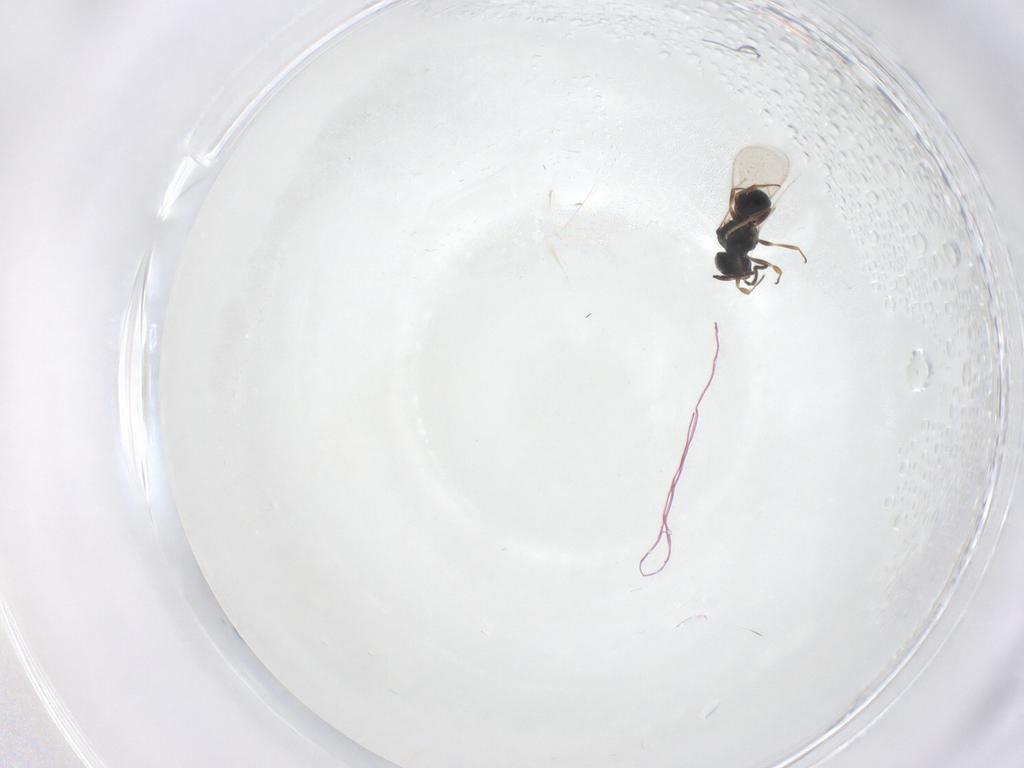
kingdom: Animalia
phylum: Arthropoda
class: Insecta
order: Hymenoptera
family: Scelionidae
